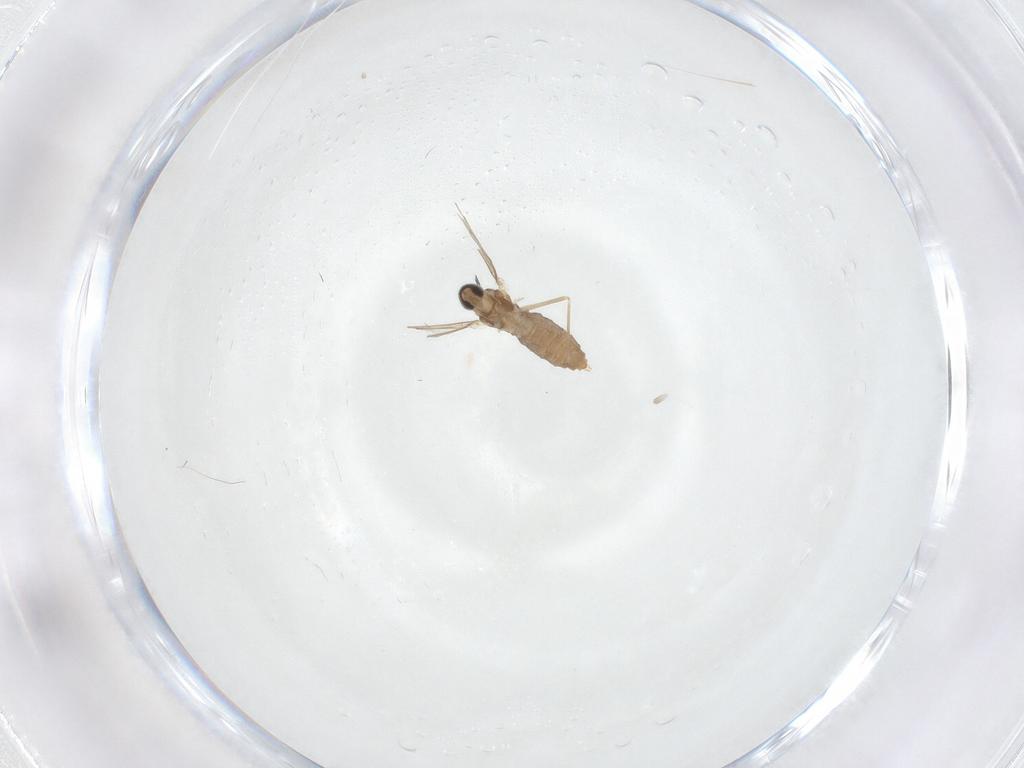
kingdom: Animalia
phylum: Arthropoda
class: Insecta
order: Diptera
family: Cecidomyiidae
